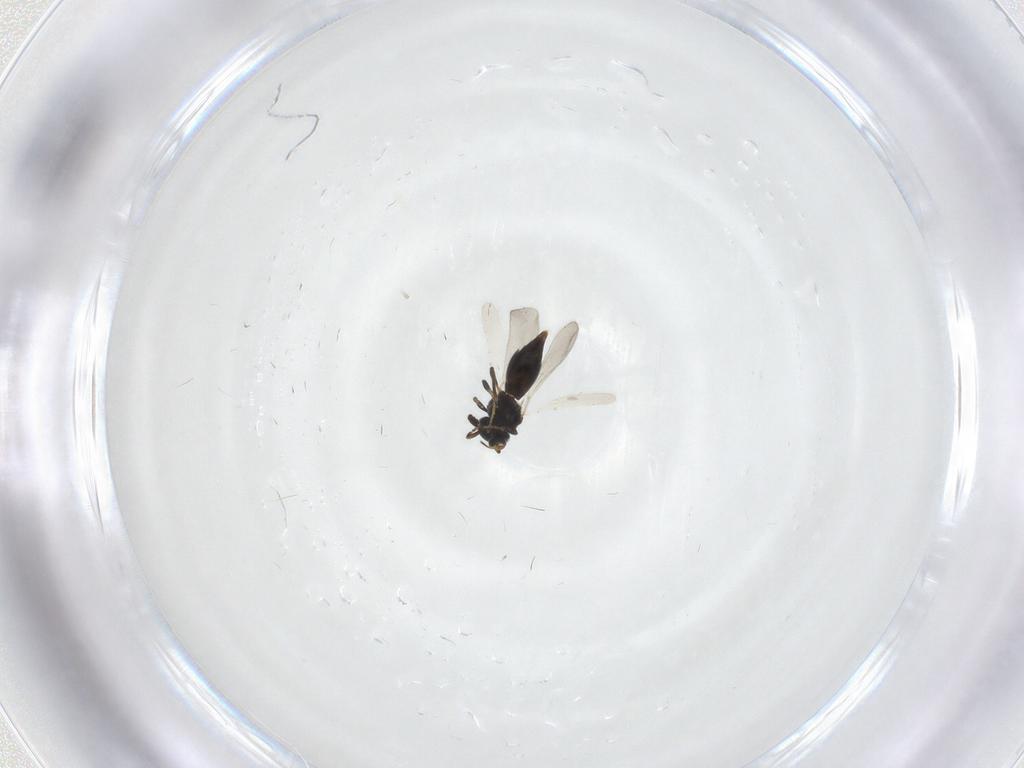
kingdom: Animalia
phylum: Arthropoda
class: Insecta
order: Hymenoptera
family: Platygastridae
